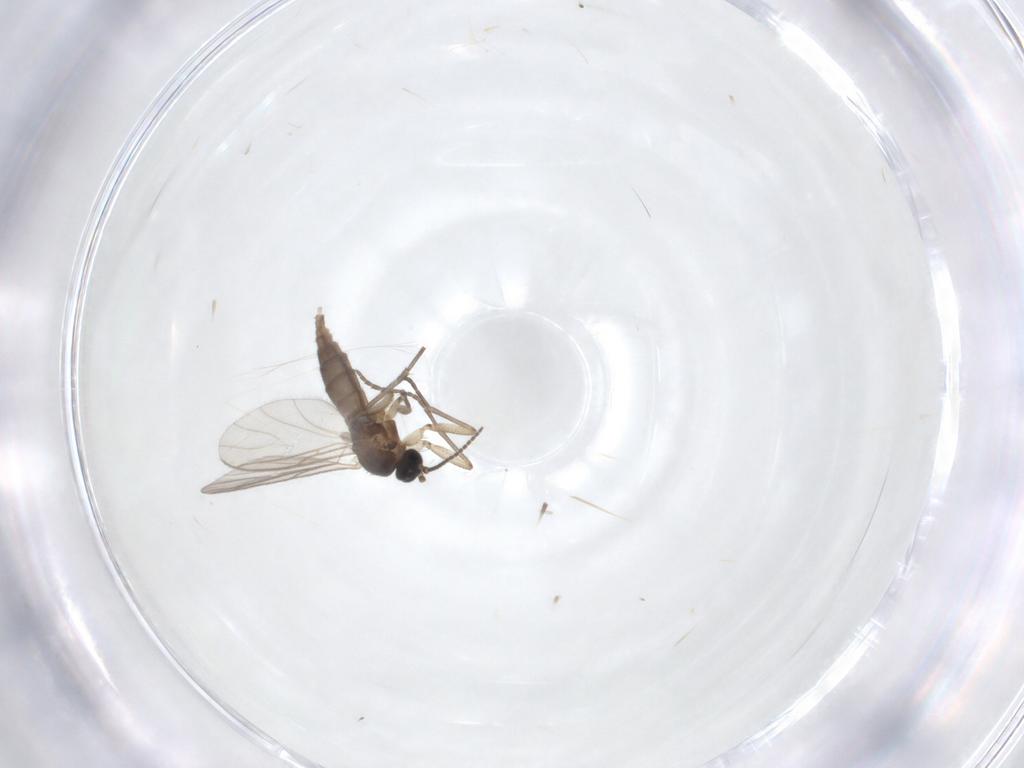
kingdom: Animalia
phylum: Arthropoda
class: Insecta
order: Diptera
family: Sciaridae
